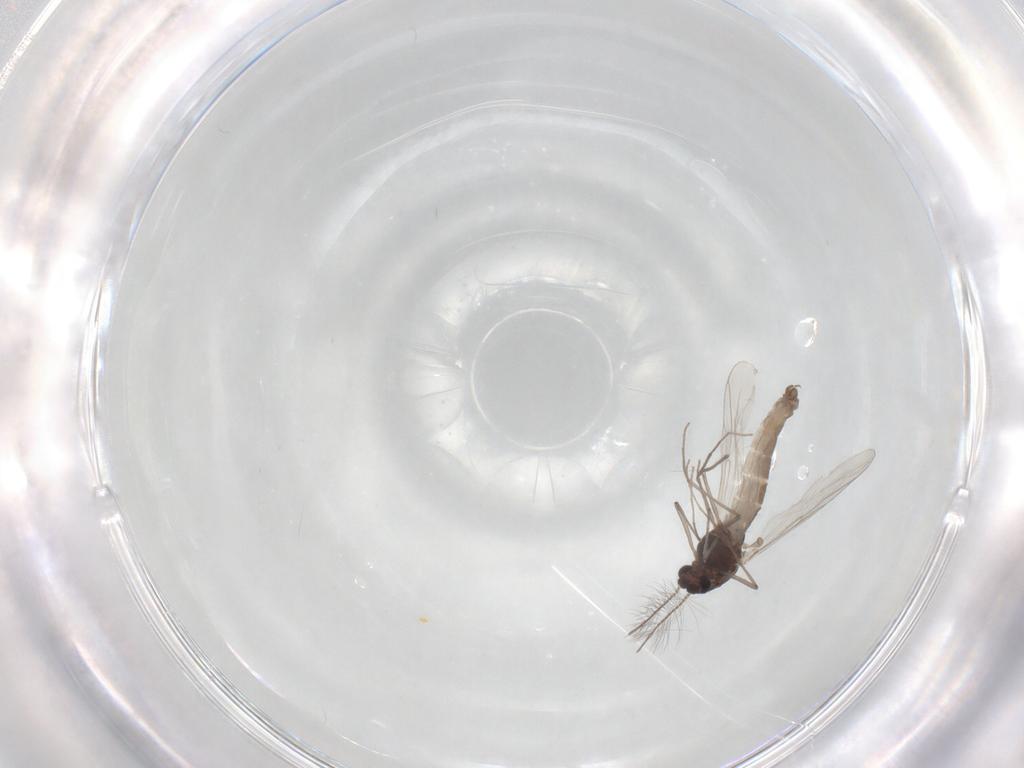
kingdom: Animalia
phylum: Arthropoda
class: Insecta
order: Diptera
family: Chironomidae
